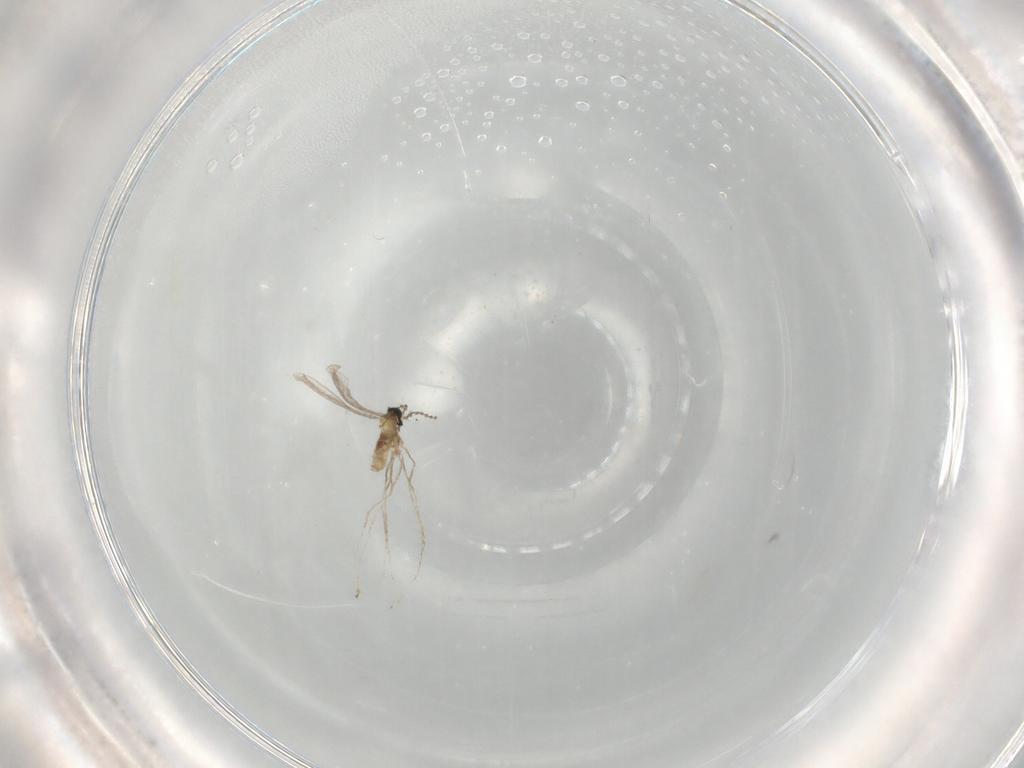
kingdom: Animalia
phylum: Arthropoda
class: Insecta
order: Diptera
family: Cecidomyiidae
